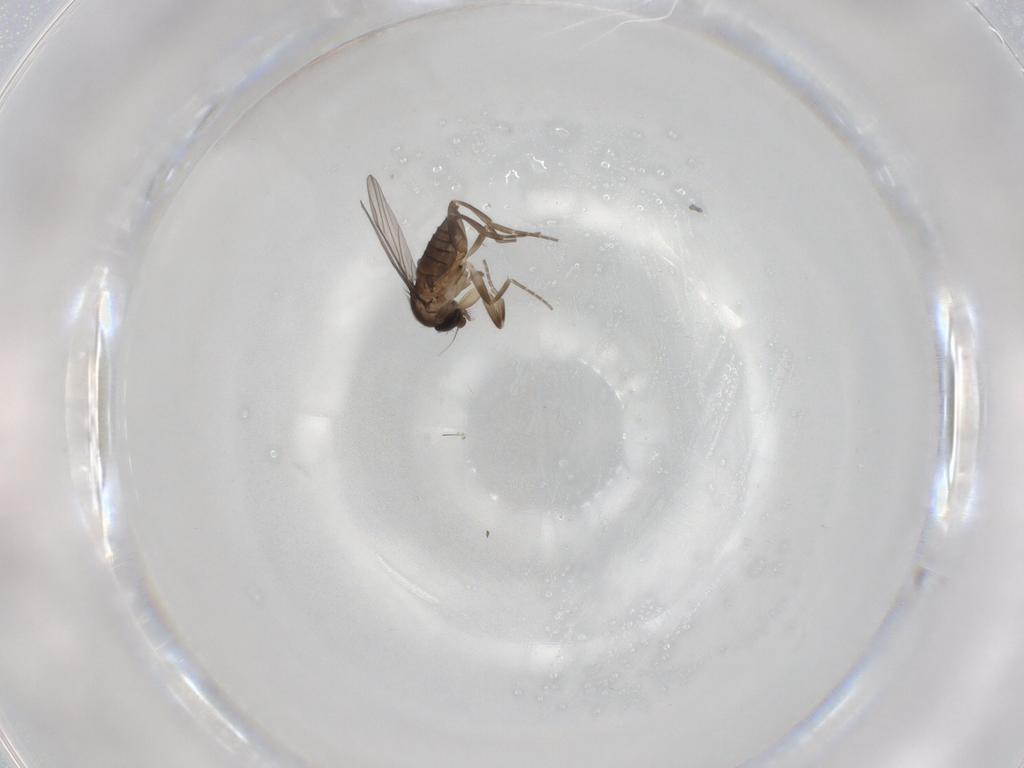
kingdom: Animalia
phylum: Arthropoda
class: Insecta
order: Diptera
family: Phoridae
